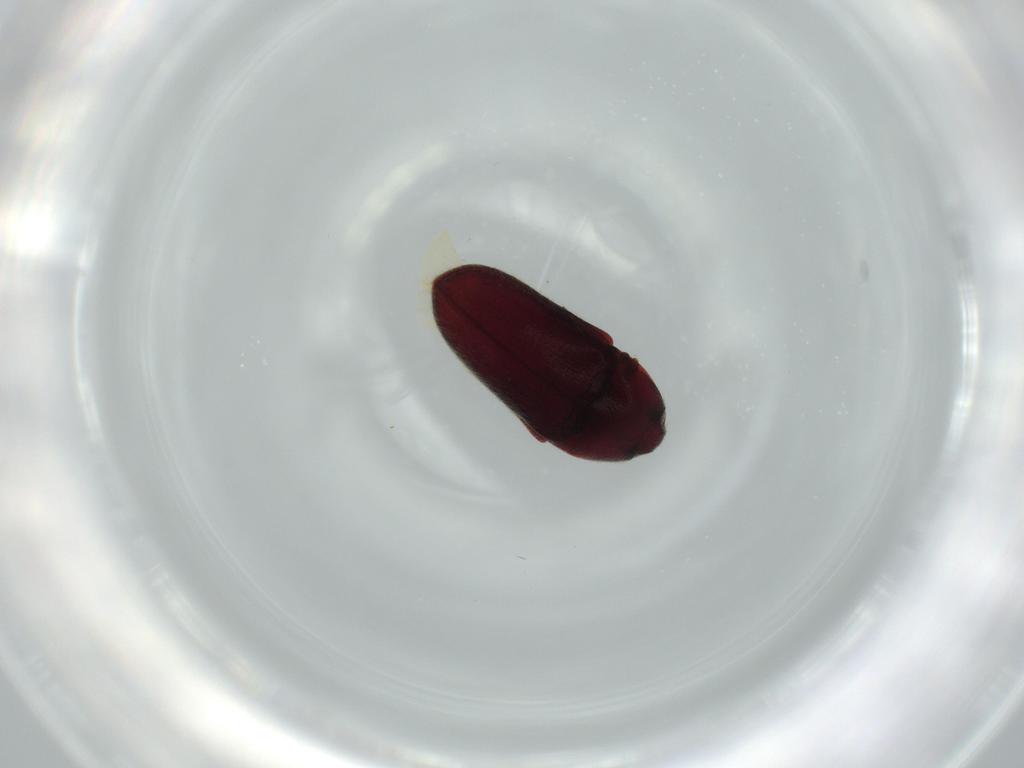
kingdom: Animalia
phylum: Arthropoda
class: Insecta
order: Coleoptera
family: Throscidae
